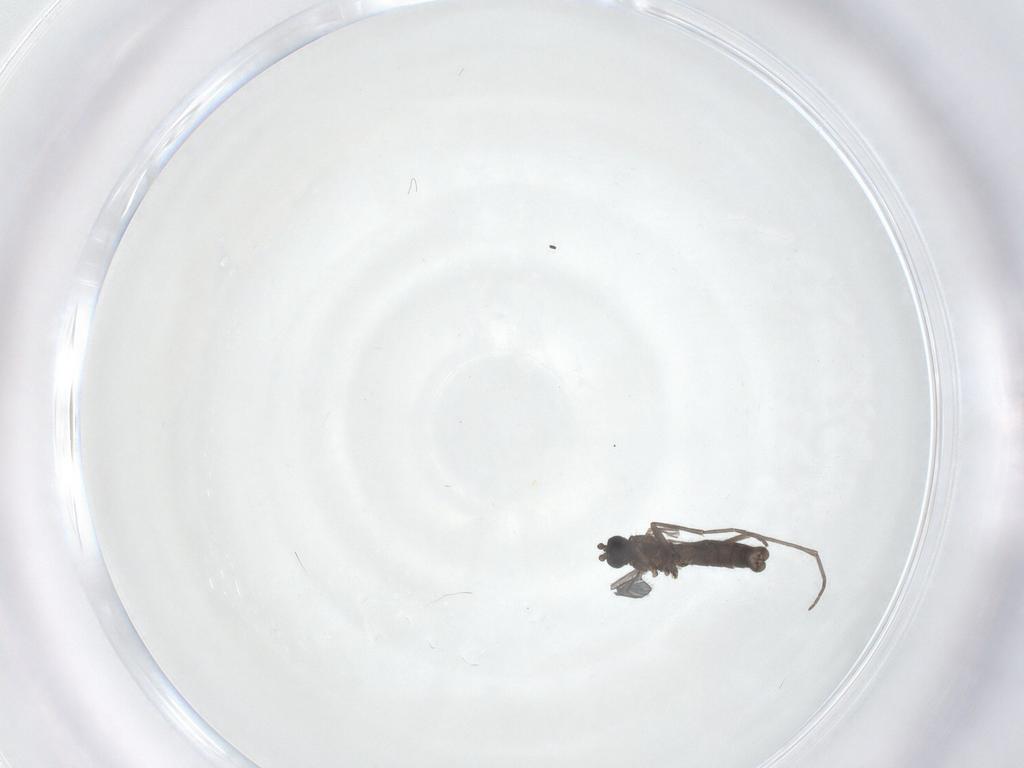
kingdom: Animalia
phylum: Arthropoda
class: Insecta
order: Diptera
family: Sciaridae
